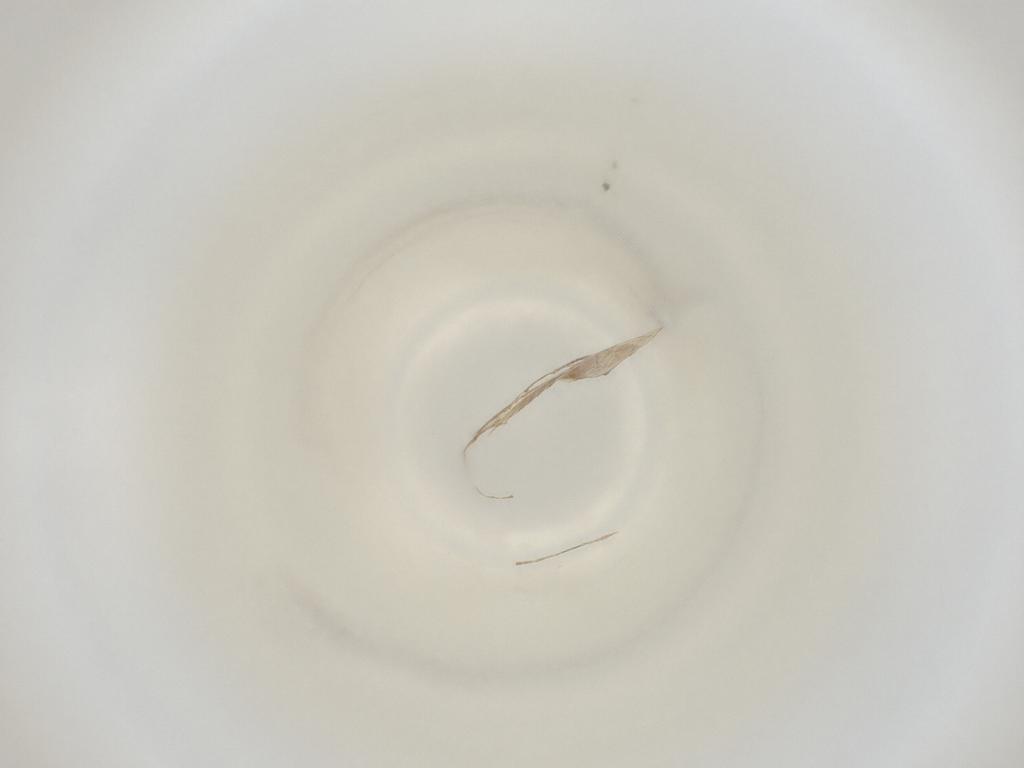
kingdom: Animalia
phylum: Arthropoda
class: Insecta
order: Diptera
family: Cecidomyiidae
